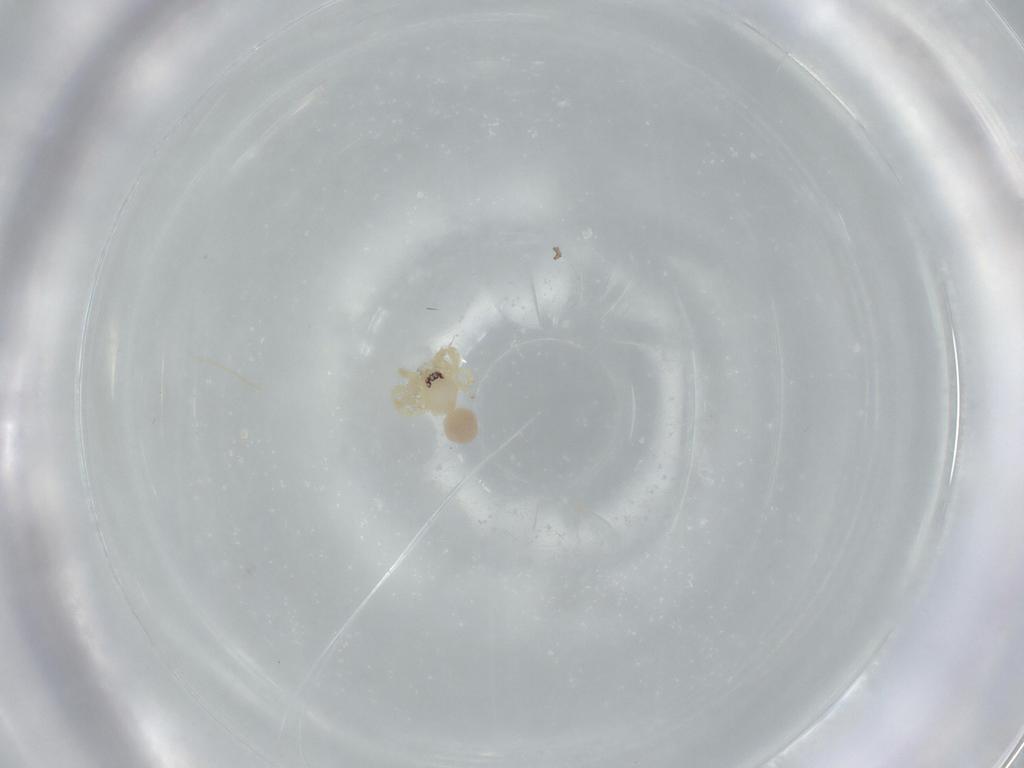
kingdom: Animalia
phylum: Arthropoda
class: Arachnida
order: Araneae
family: Oonopidae
